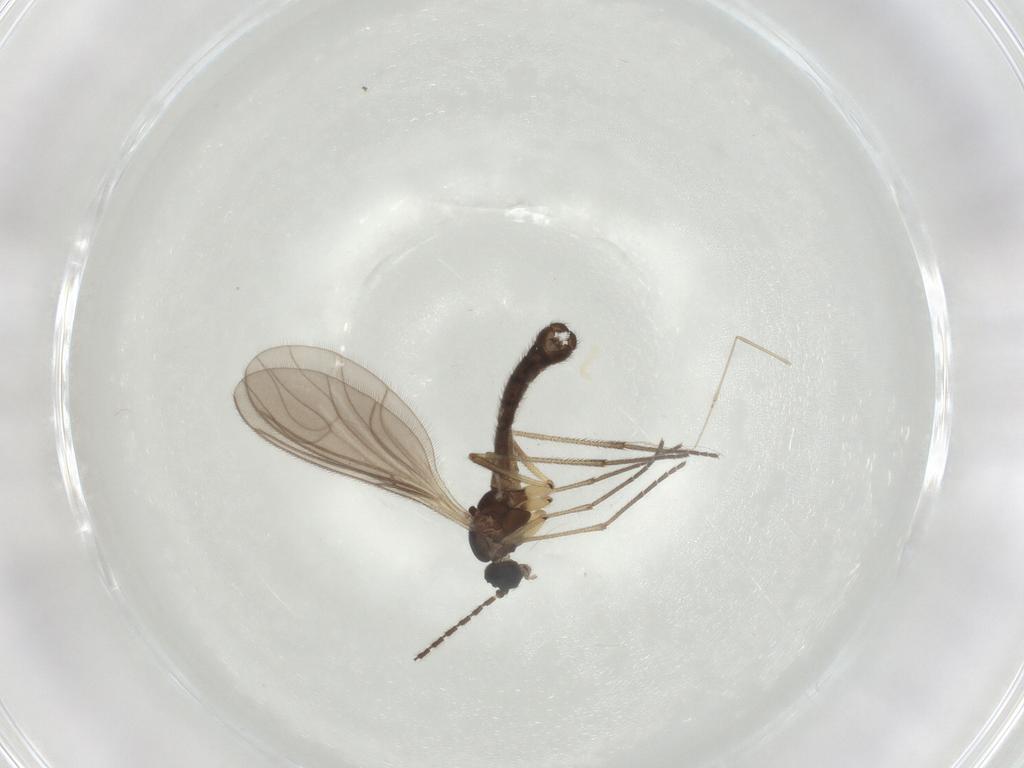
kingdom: Animalia
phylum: Arthropoda
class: Insecta
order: Diptera
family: Sciaridae
